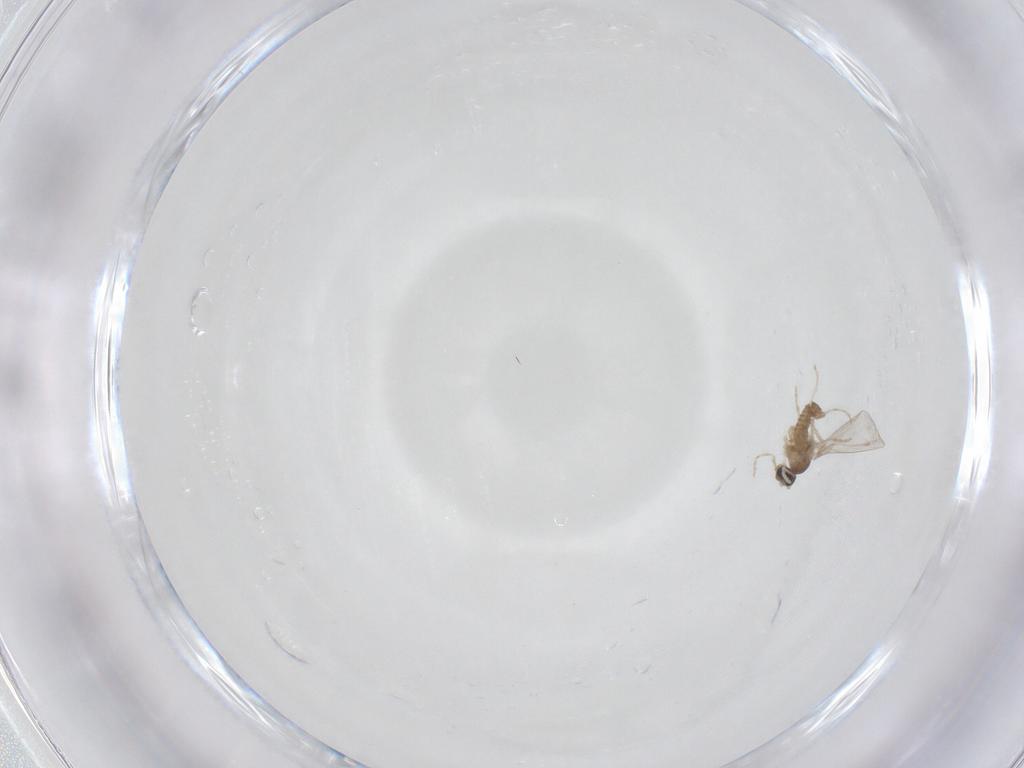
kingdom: Animalia
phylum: Arthropoda
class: Insecta
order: Diptera
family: Cecidomyiidae
